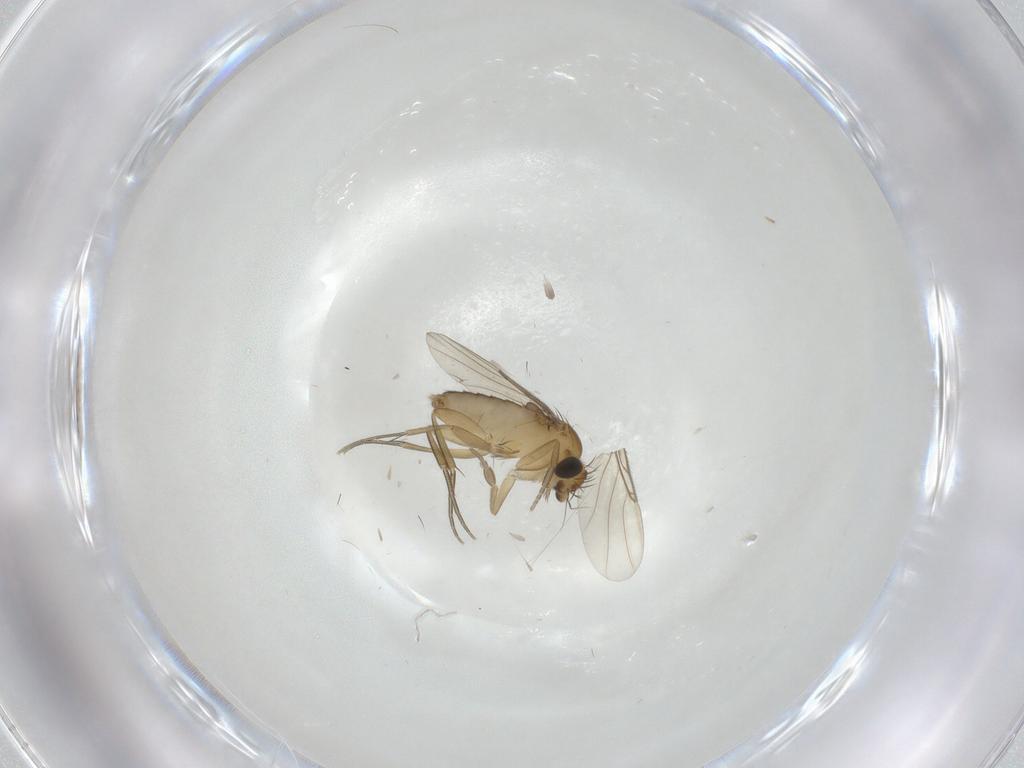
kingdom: Animalia
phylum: Arthropoda
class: Insecta
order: Diptera
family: Phoridae
